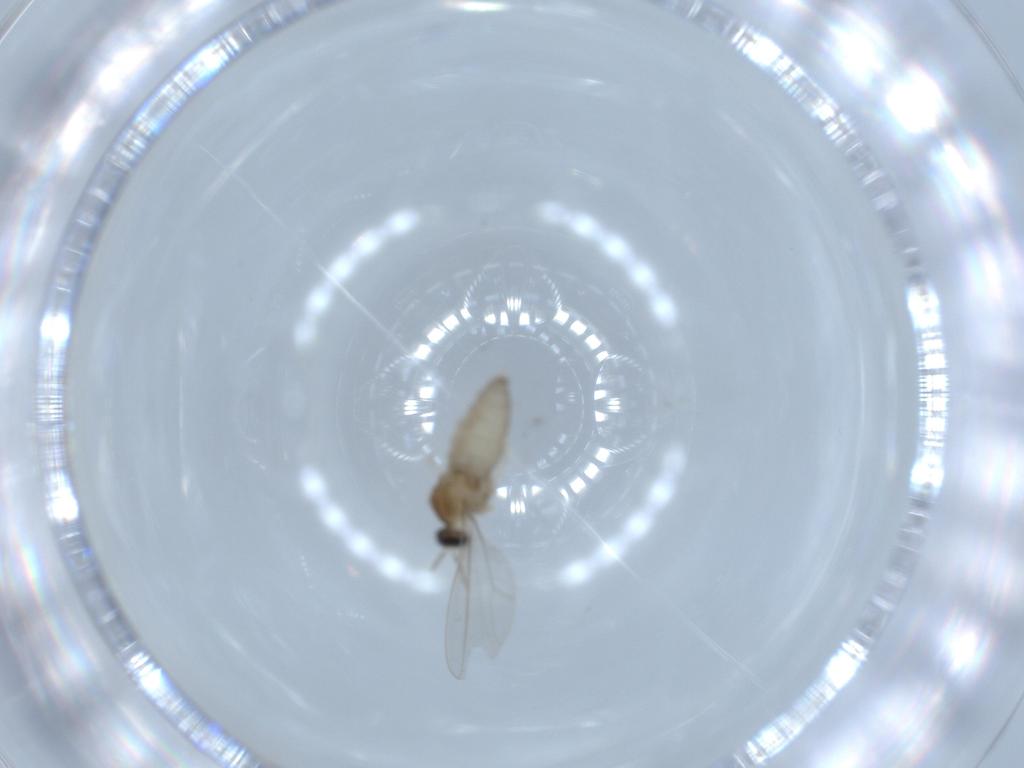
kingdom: Animalia
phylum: Arthropoda
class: Insecta
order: Diptera
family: Cecidomyiidae
